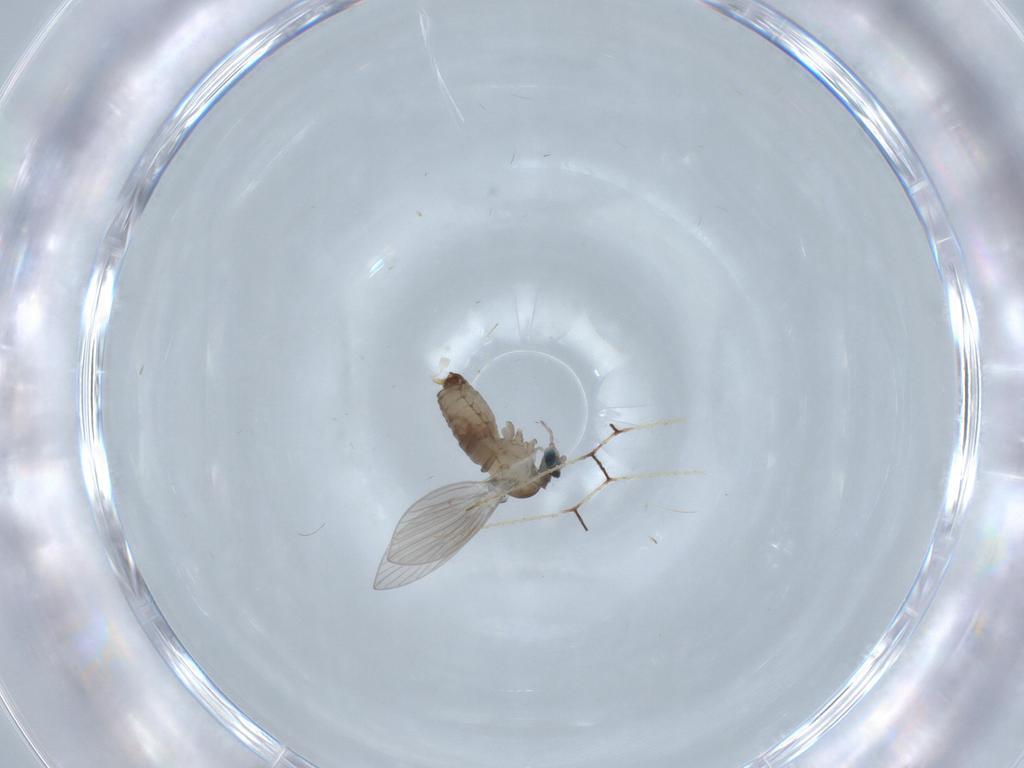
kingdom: Animalia
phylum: Arthropoda
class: Insecta
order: Diptera
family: Psychodidae
